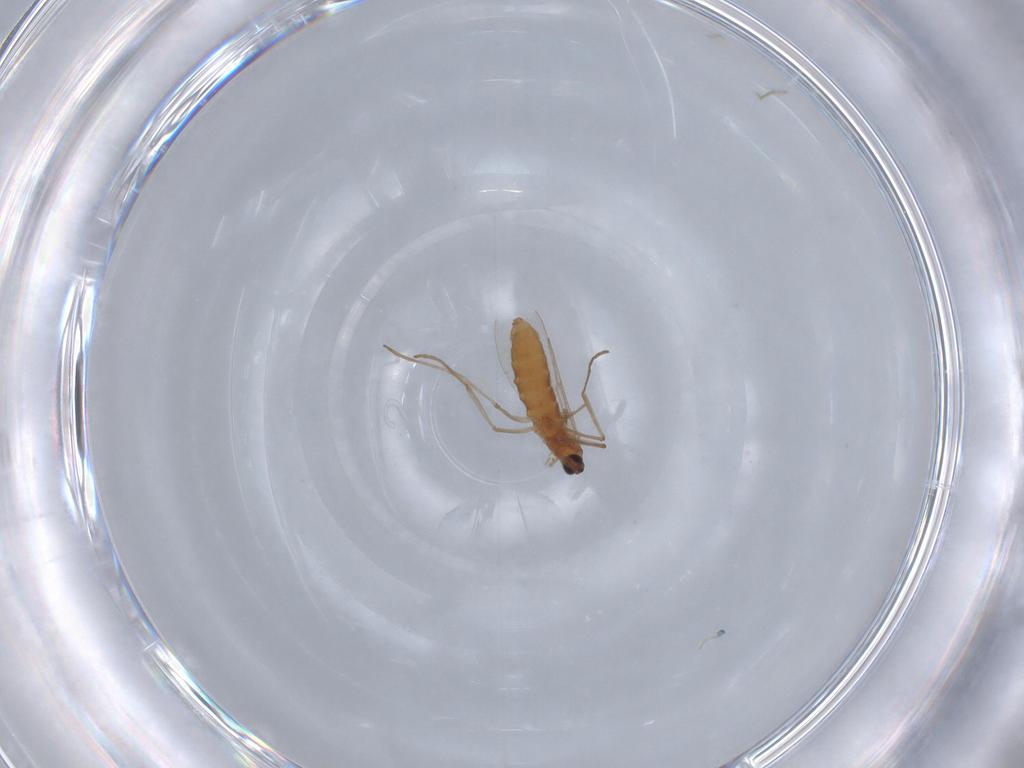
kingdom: Animalia
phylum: Arthropoda
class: Insecta
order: Diptera
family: Cecidomyiidae
